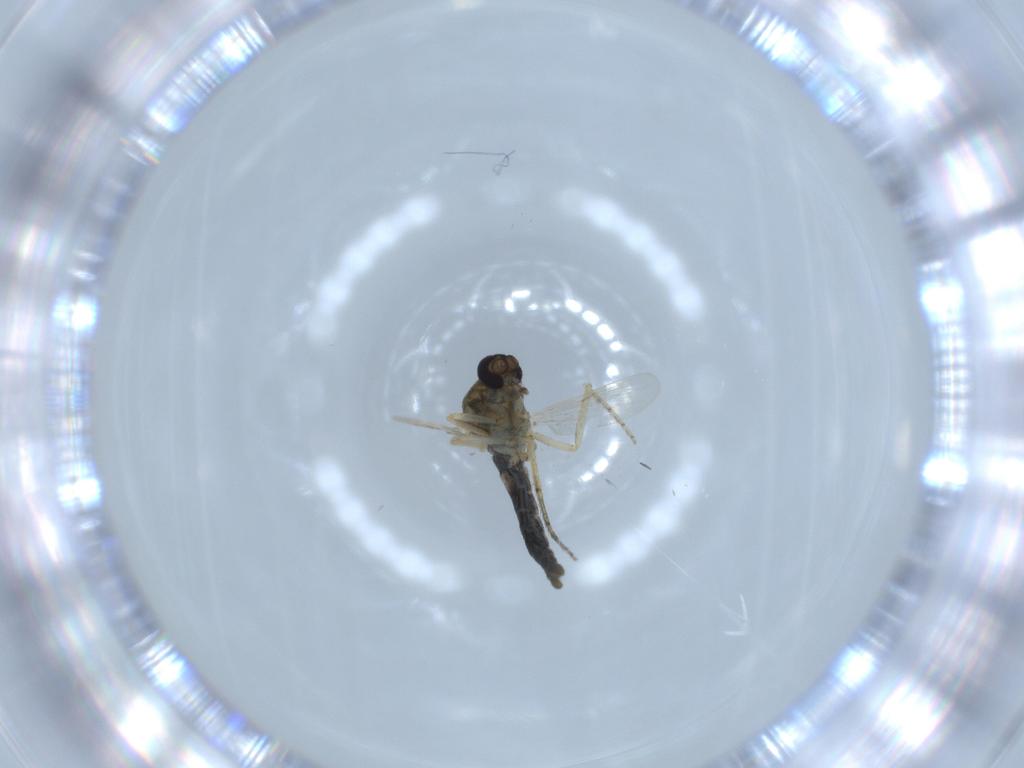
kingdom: Animalia
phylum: Arthropoda
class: Insecta
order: Diptera
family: Ceratopogonidae
